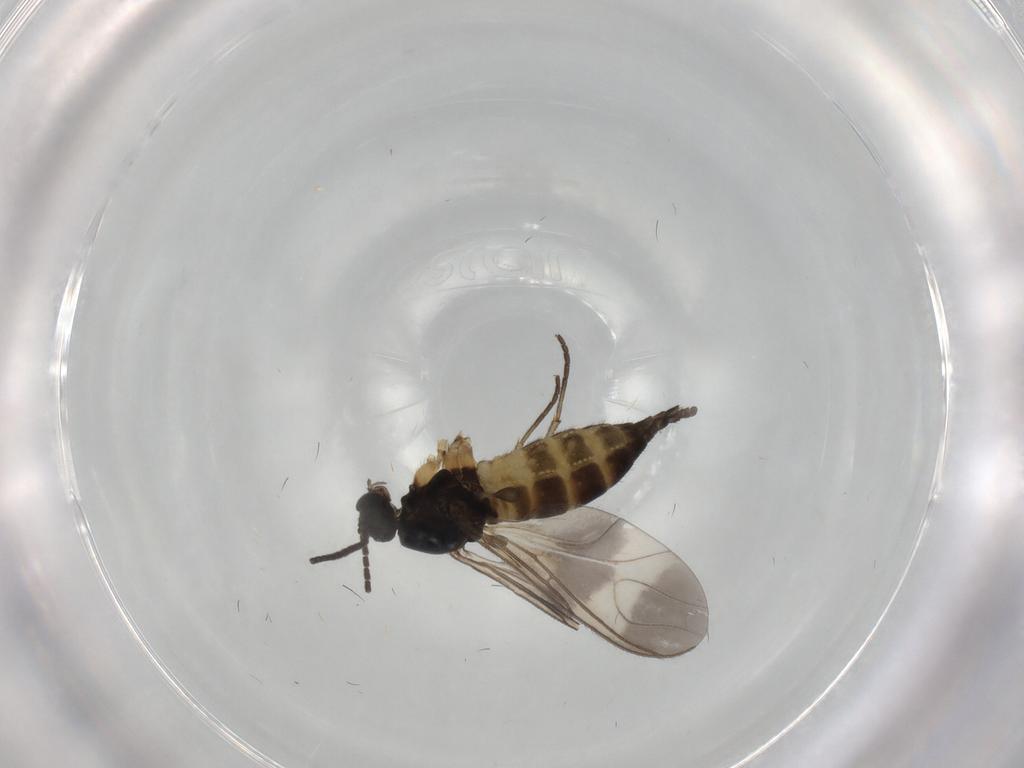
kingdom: Animalia
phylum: Arthropoda
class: Insecta
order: Diptera
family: Sciaridae
